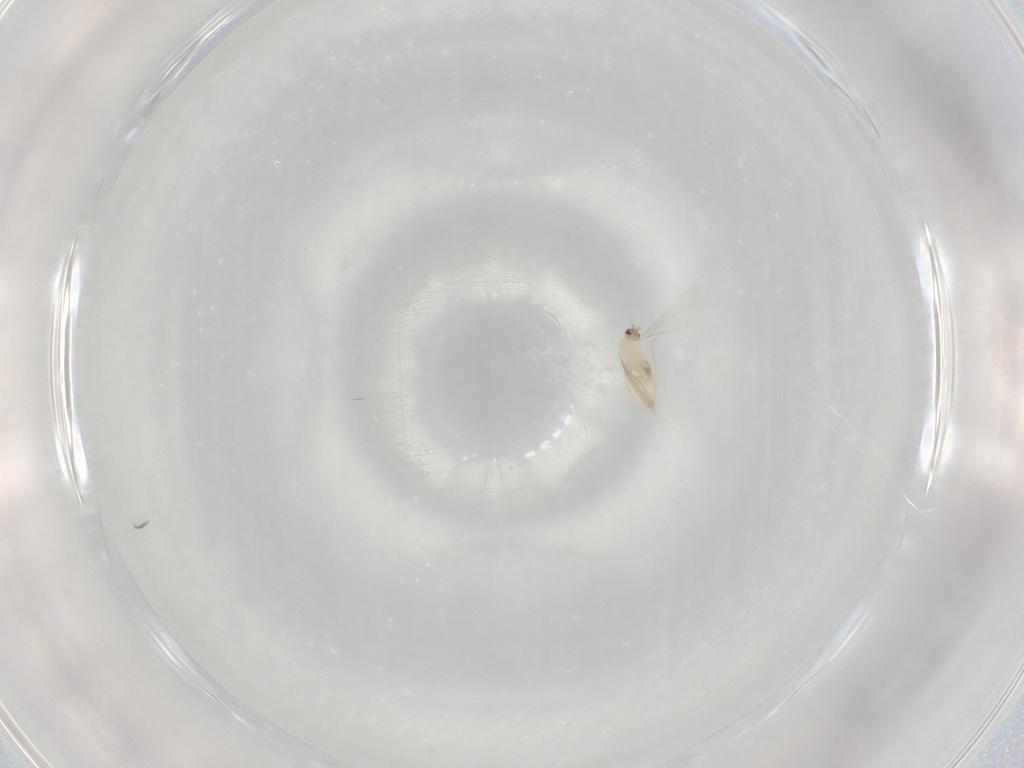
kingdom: Animalia
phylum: Arthropoda
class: Insecta
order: Diptera
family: Cecidomyiidae
